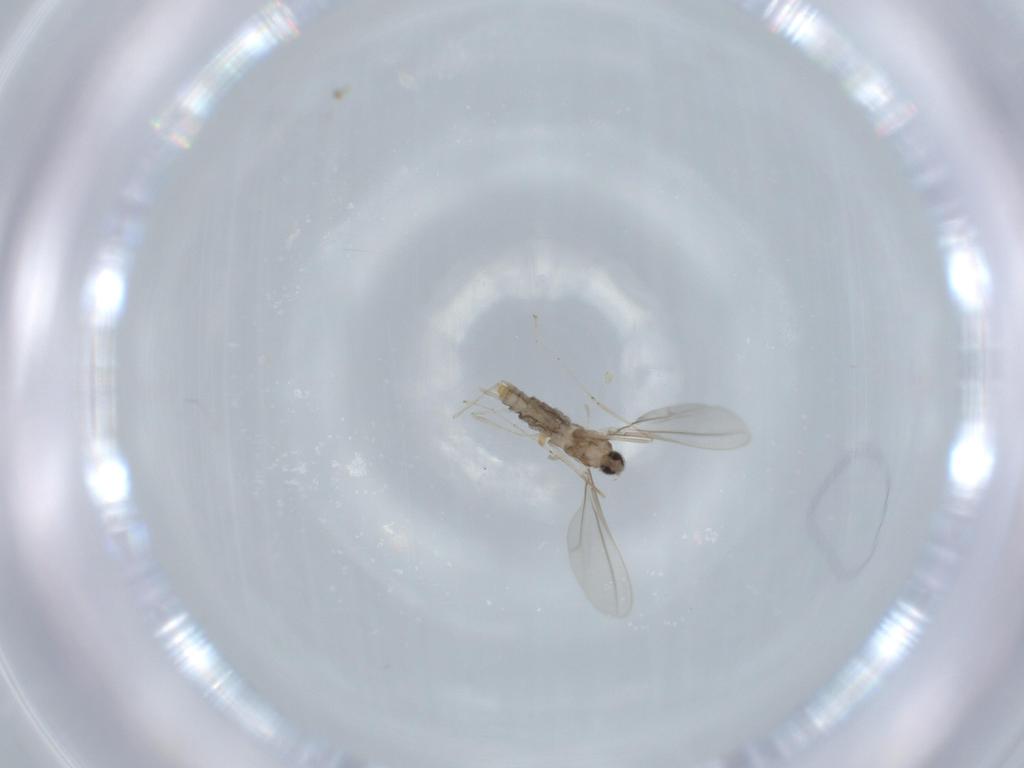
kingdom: Animalia
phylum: Arthropoda
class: Insecta
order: Diptera
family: Cecidomyiidae
